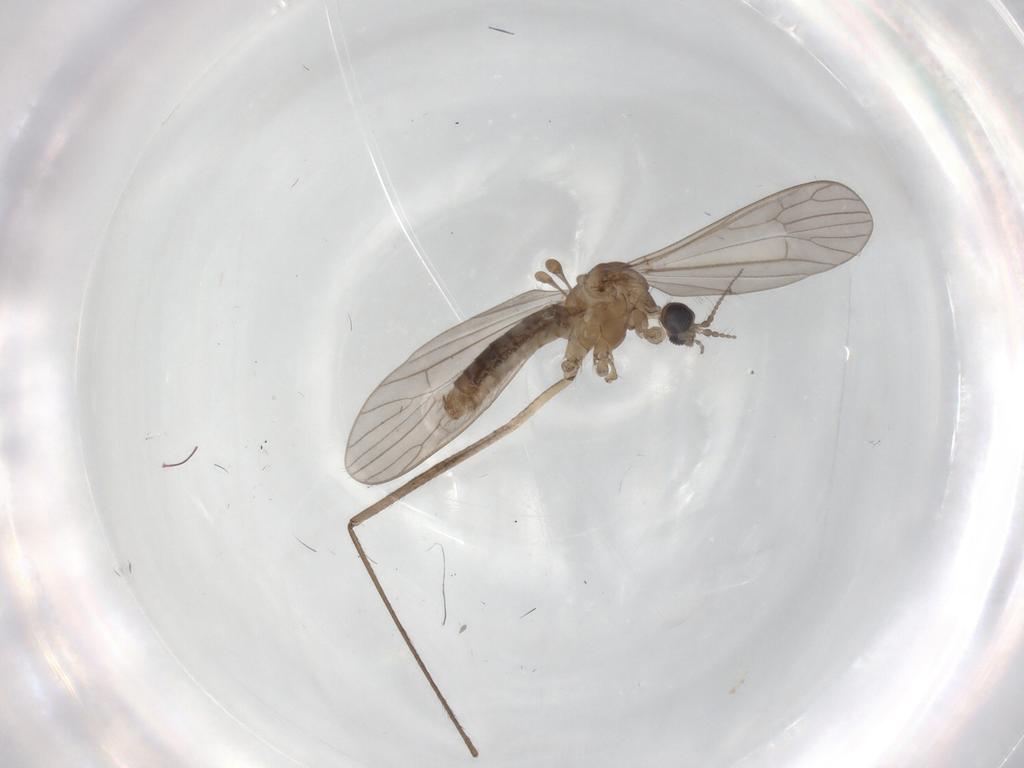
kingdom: Animalia
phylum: Arthropoda
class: Insecta
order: Diptera
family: Limoniidae
